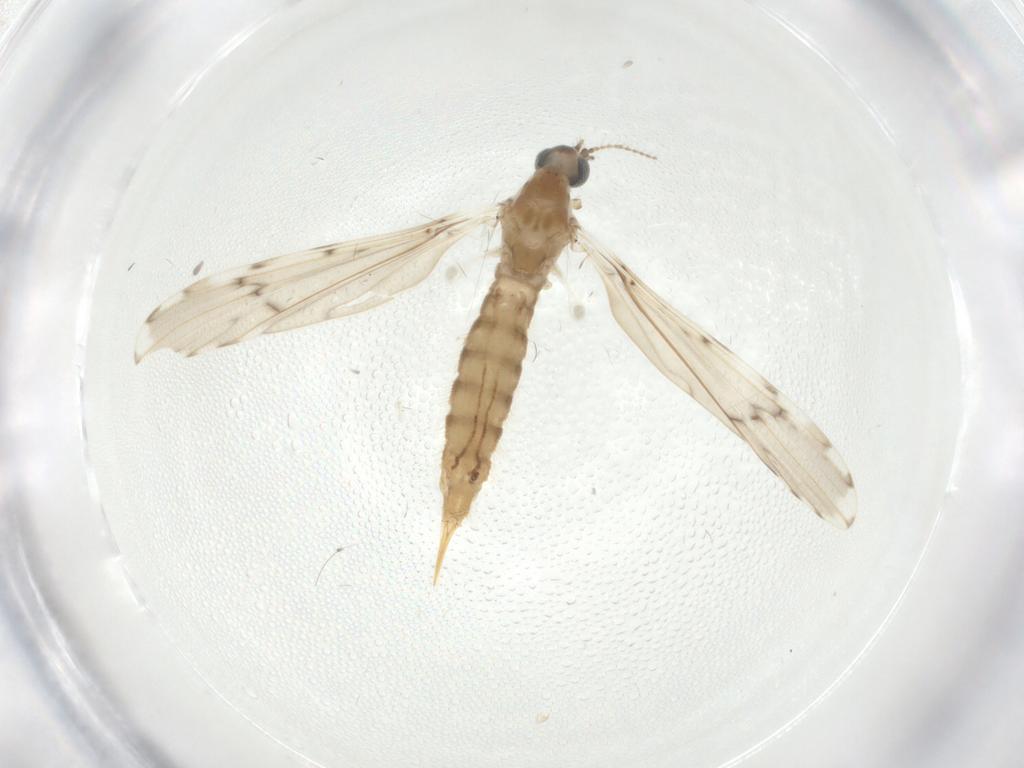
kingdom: Animalia
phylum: Arthropoda
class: Insecta
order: Diptera
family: Limoniidae
